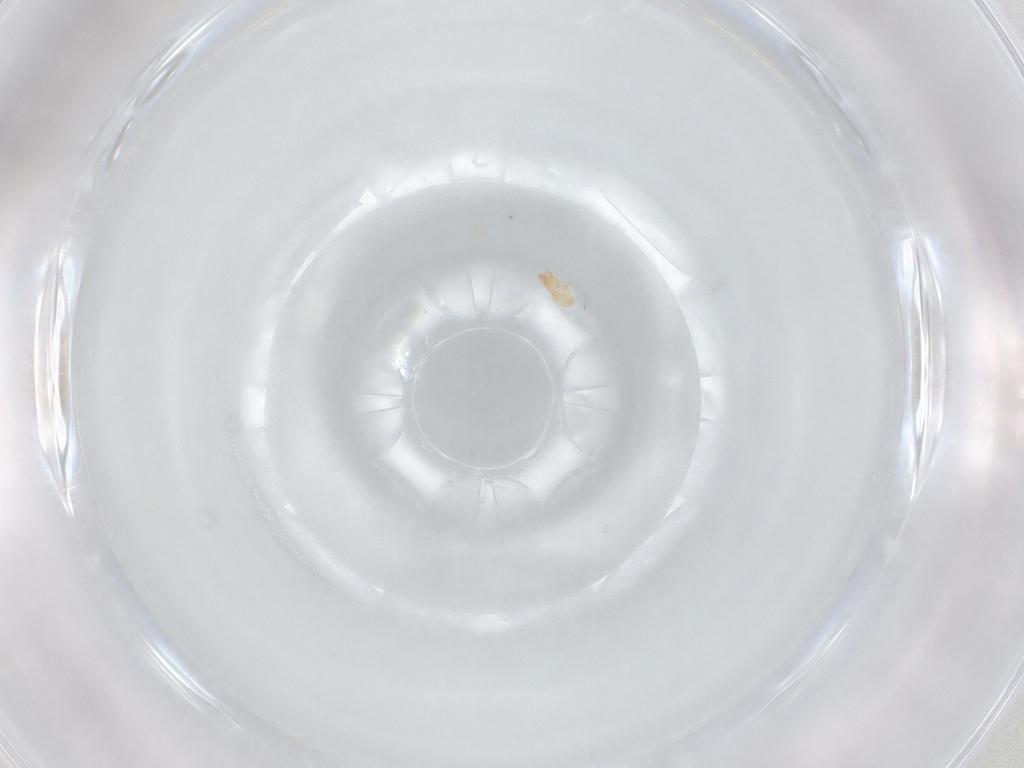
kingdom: Animalia
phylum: Arthropoda
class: Arachnida
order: Mesostigmata
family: Ascidae
